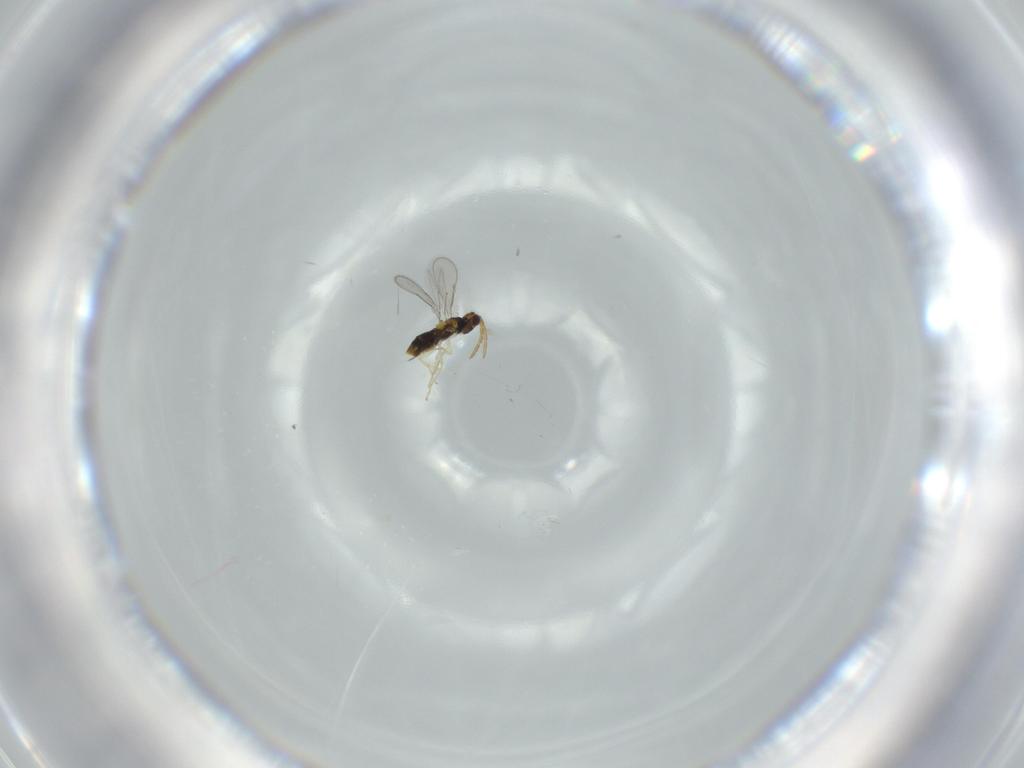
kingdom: Animalia
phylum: Arthropoda
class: Insecta
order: Hymenoptera
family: Aphelinidae
